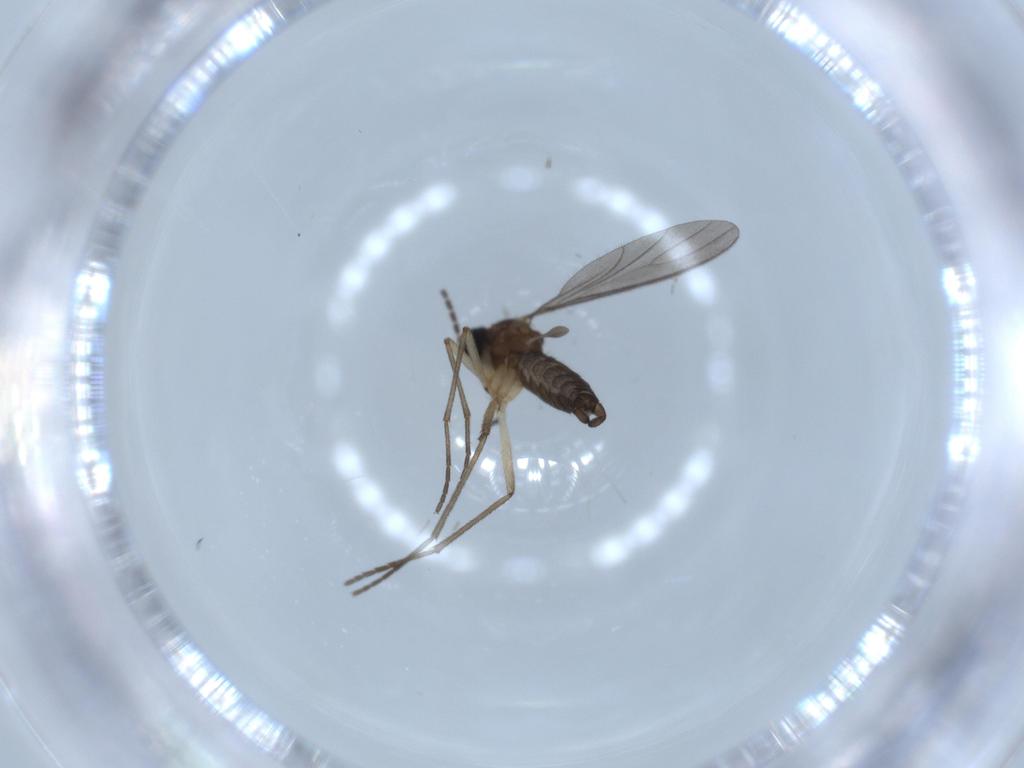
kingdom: Animalia
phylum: Arthropoda
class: Insecta
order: Diptera
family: Sciaridae
